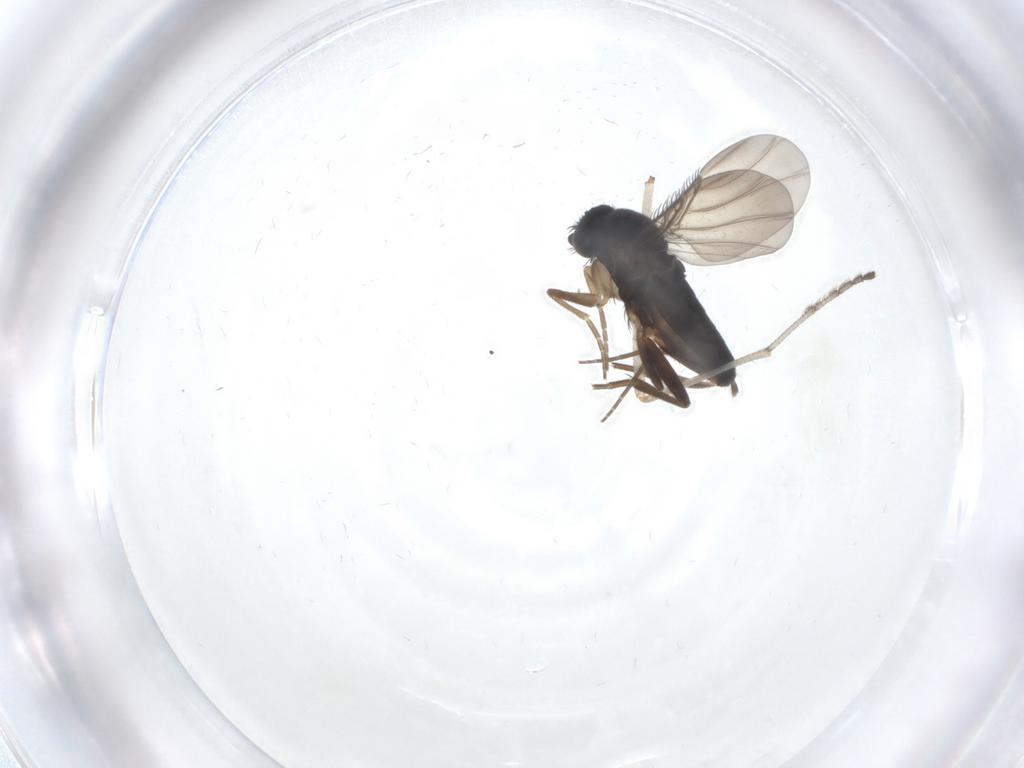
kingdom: Animalia
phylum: Arthropoda
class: Insecta
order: Diptera
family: Phoridae
